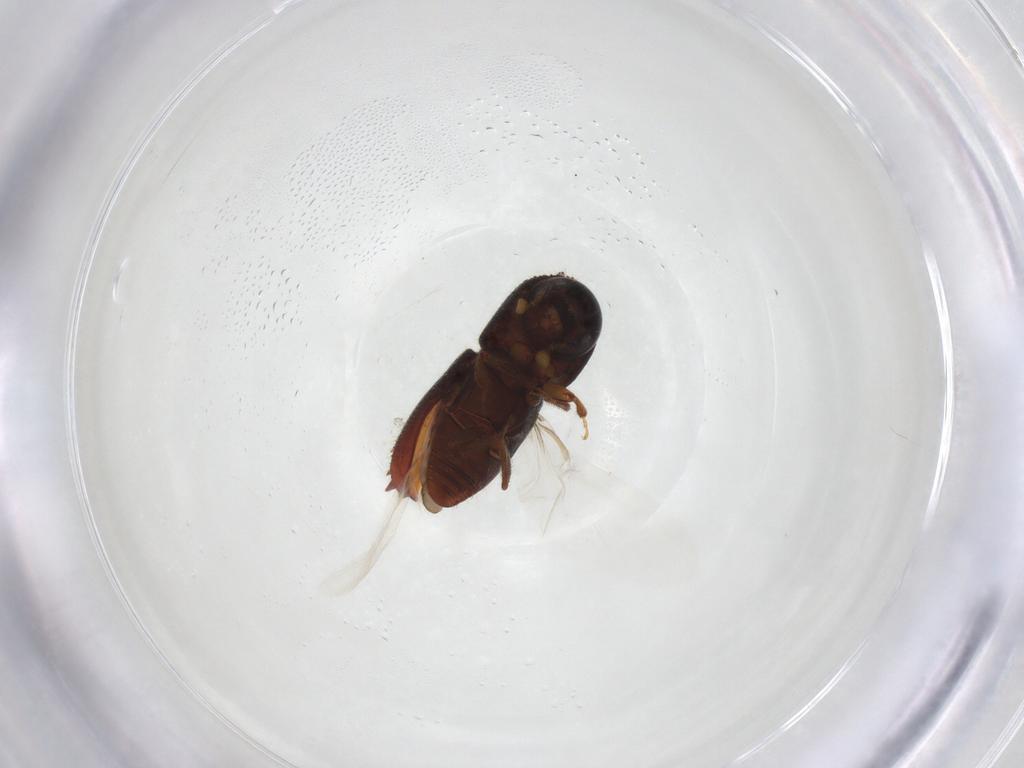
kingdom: Animalia
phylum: Arthropoda
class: Insecta
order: Coleoptera
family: Curculionidae
